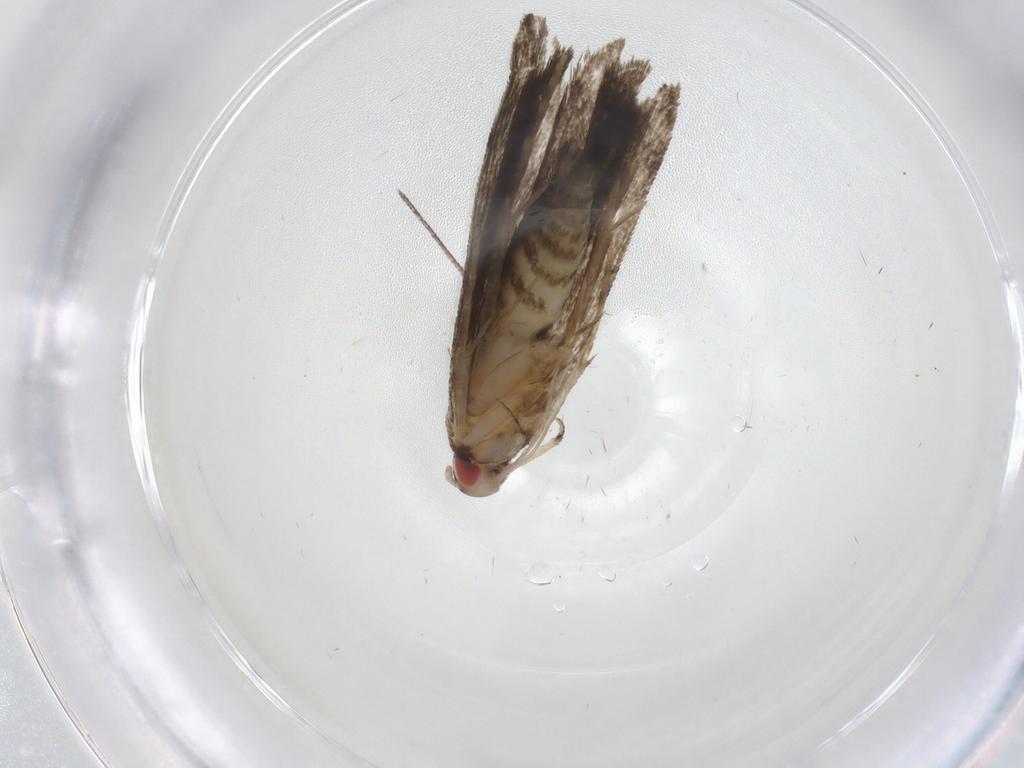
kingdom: Animalia
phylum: Arthropoda
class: Insecta
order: Lepidoptera
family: Gelechiidae
